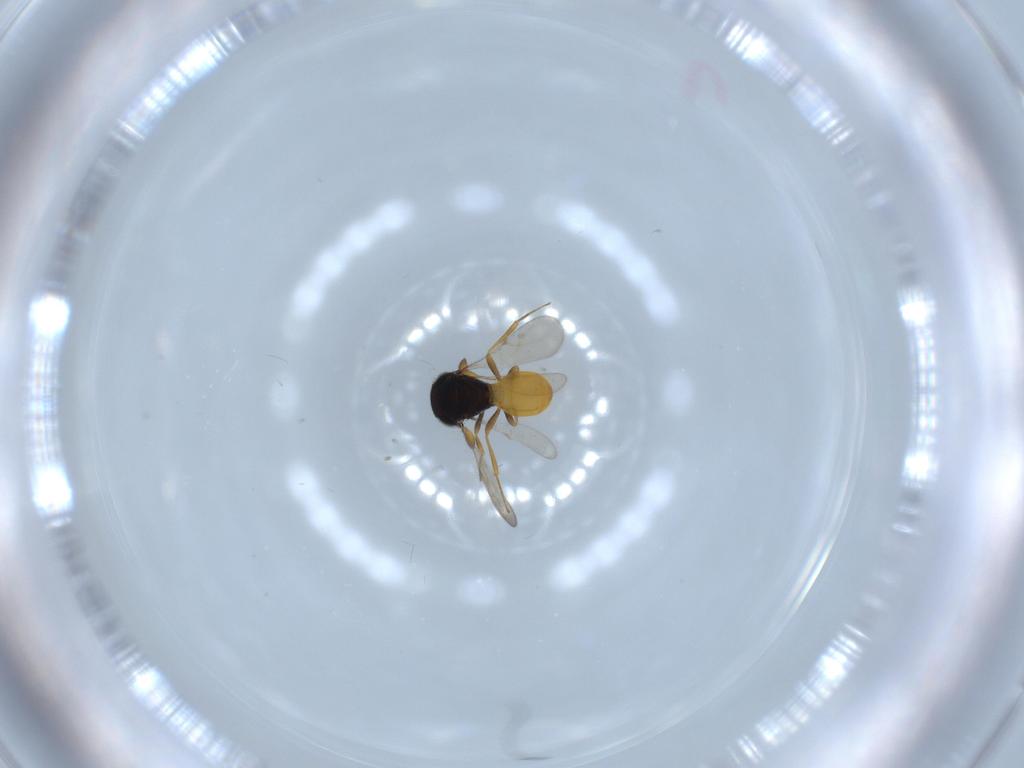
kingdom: Animalia
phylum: Arthropoda
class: Insecta
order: Hymenoptera
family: Scelionidae
